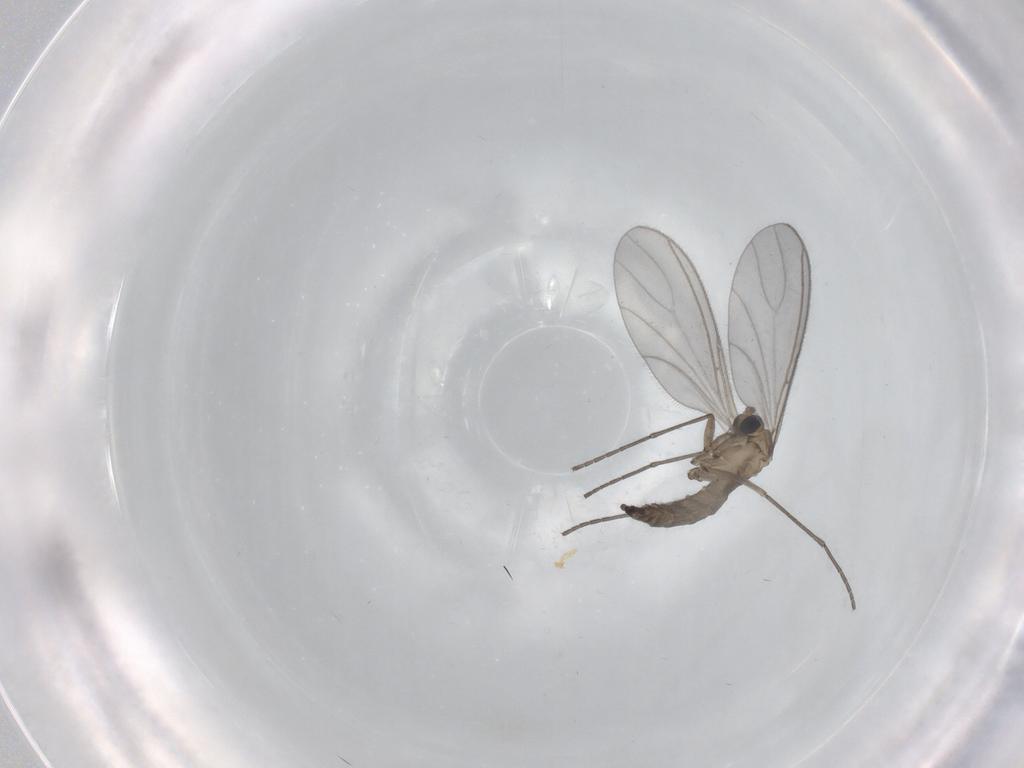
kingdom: Animalia
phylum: Arthropoda
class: Insecta
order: Diptera
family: Sciaridae
